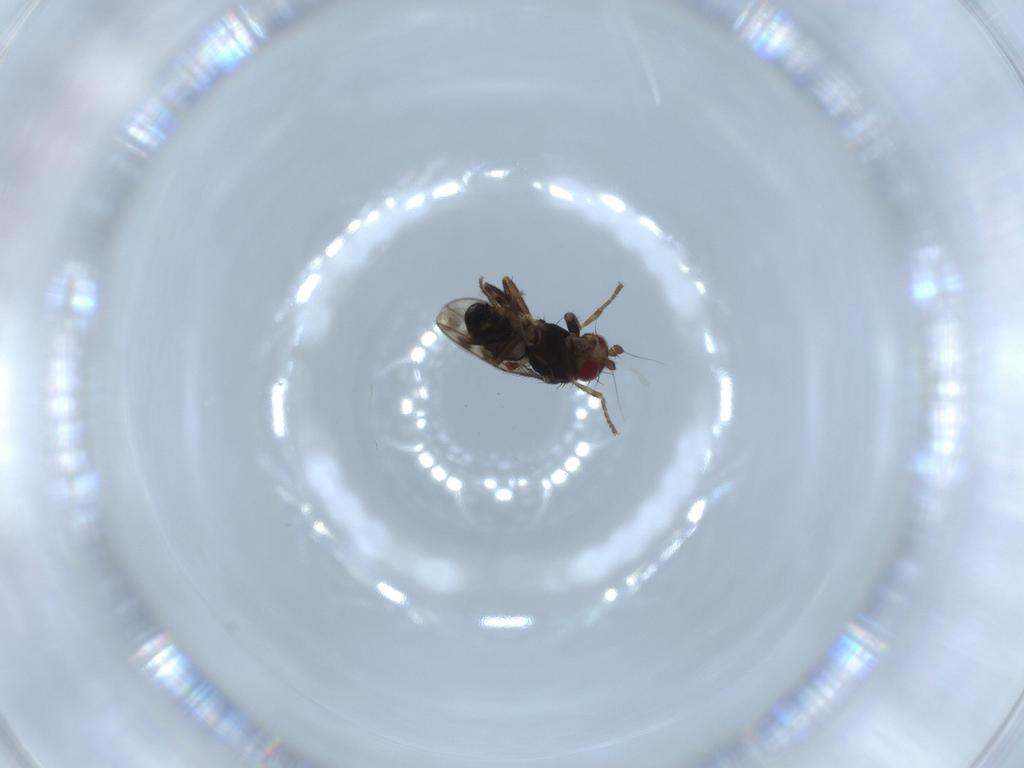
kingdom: Animalia
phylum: Arthropoda
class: Insecta
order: Diptera
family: Sphaeroceridae
